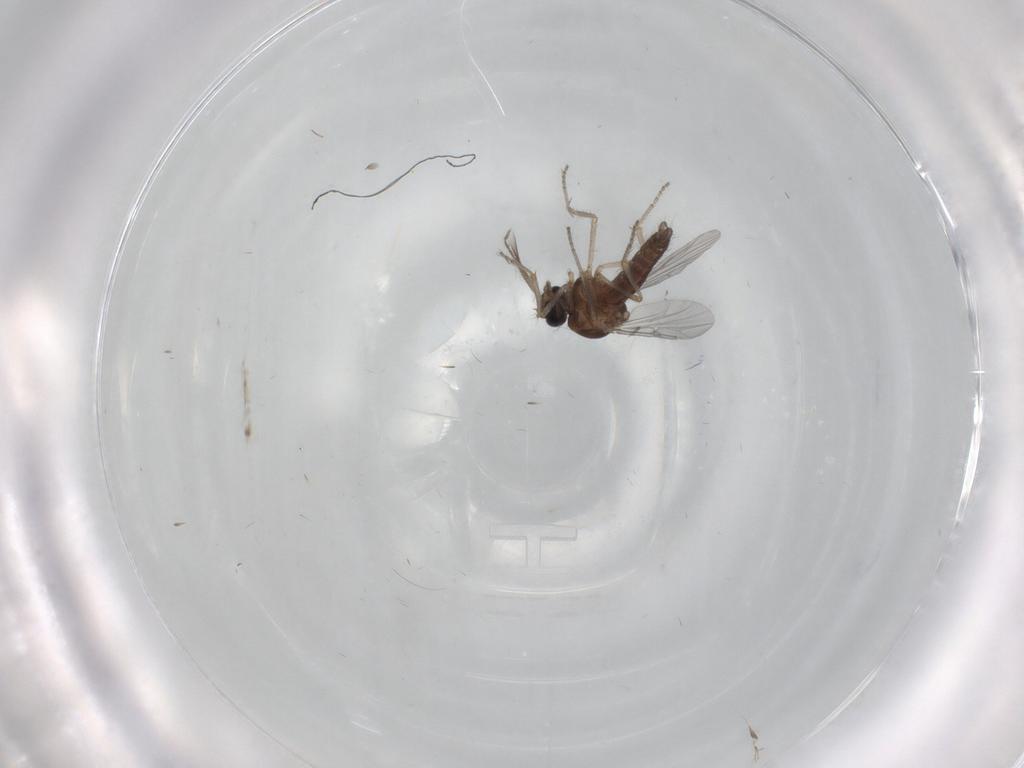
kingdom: Animalia
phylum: Arthropoda
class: Insecta
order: Diptera
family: Ceratopogonidae
